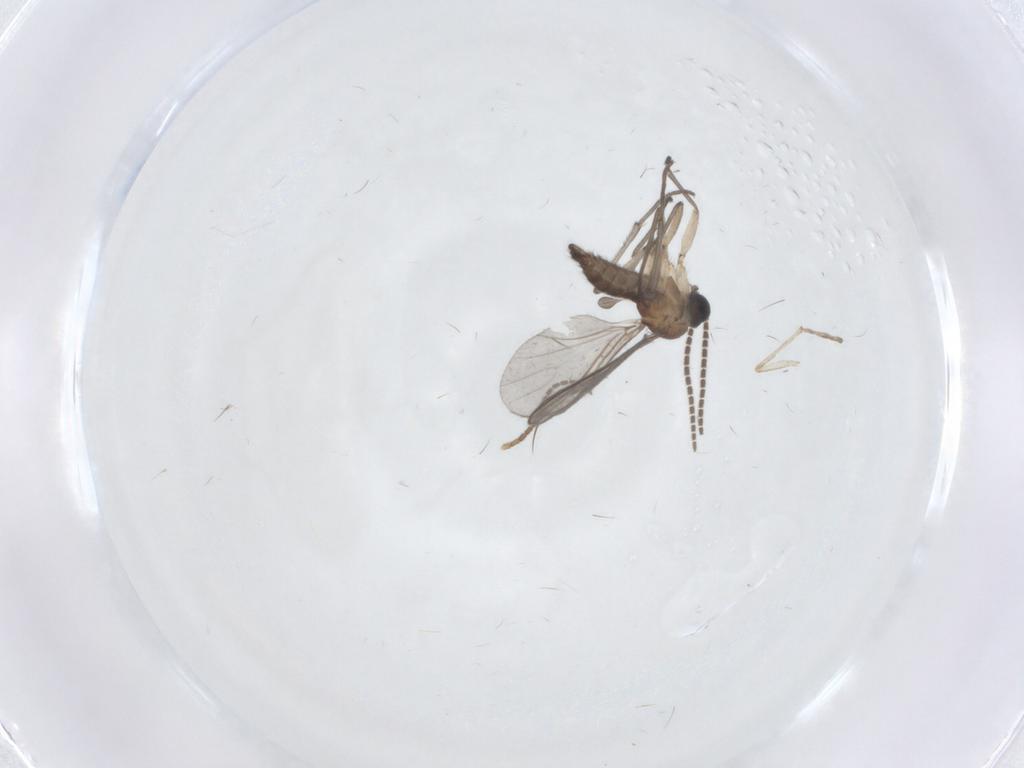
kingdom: Animalia
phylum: Arthropoda
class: Insecta
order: Diptera
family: Sciaridae
